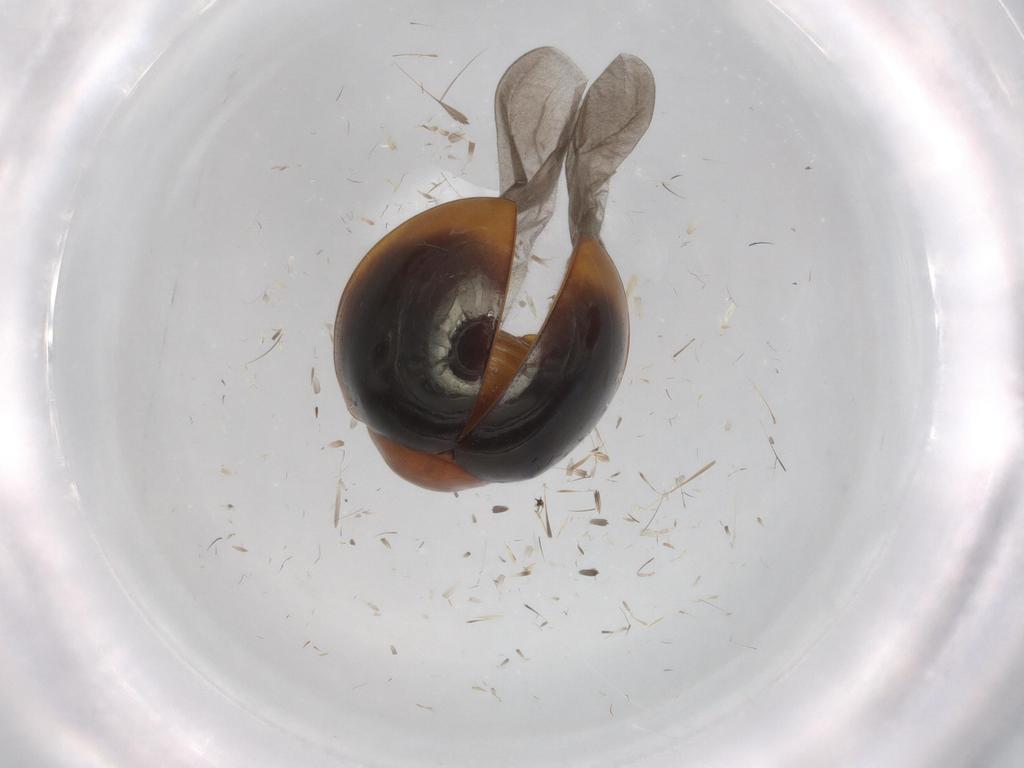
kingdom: Animalia
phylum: Arthropoda
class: Insecta
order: Coleoptera
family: Coccinellidae
